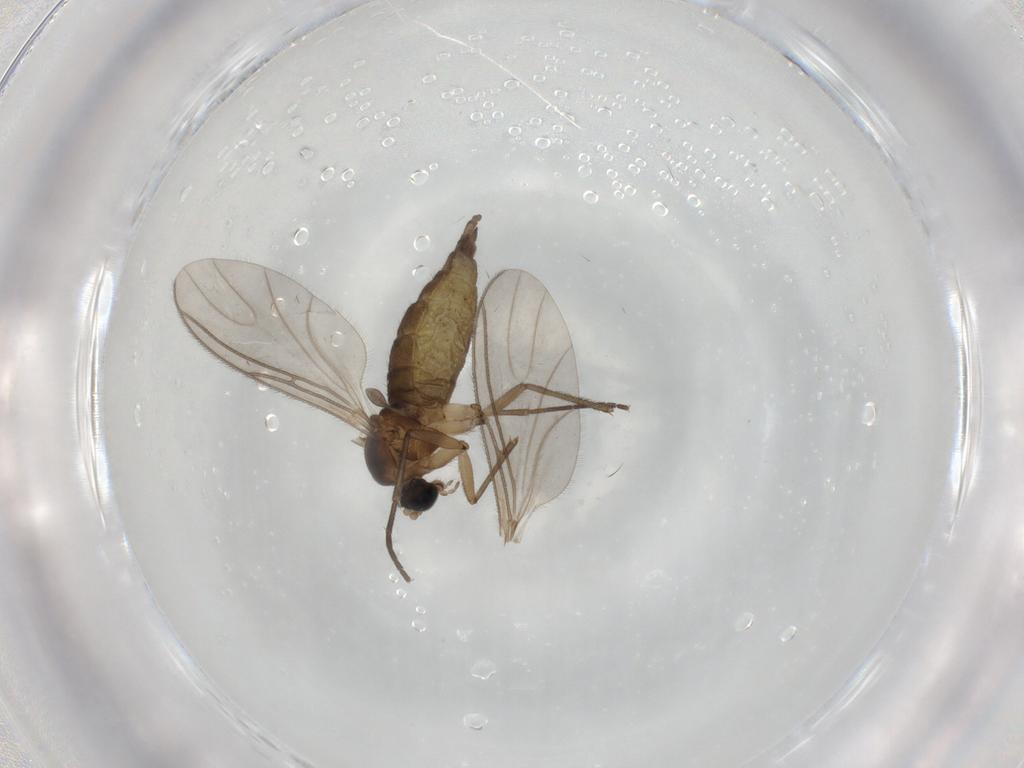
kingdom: Animalia
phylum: Arthropoda
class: Insecta
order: Diptera
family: Sciaridae
